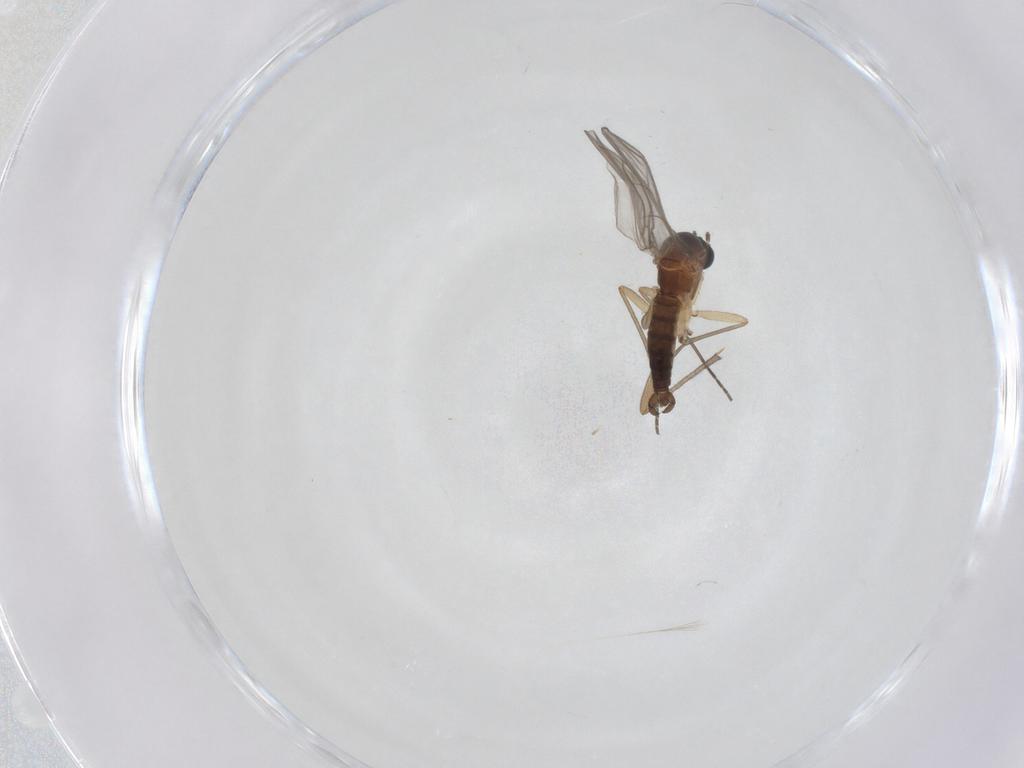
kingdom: Animalia
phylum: Arthropoda
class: Insecta
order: Diptera
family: Sciaridae
